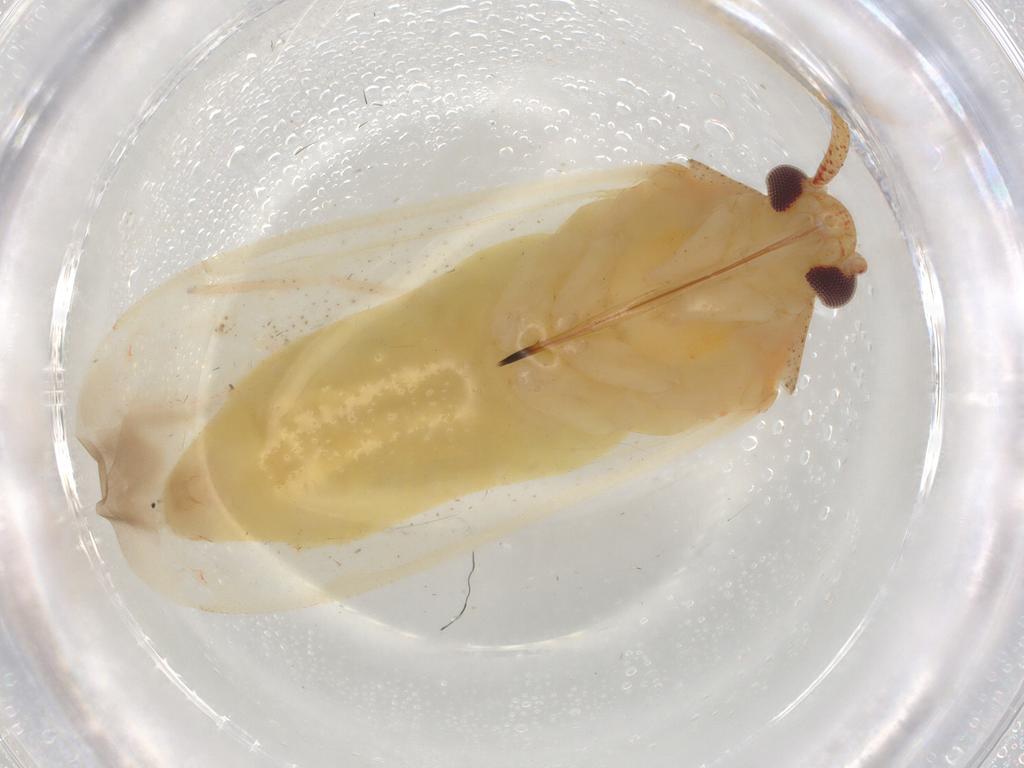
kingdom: Animalia
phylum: Arthropoda
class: Insecta
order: Hemiptera
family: Miridae
